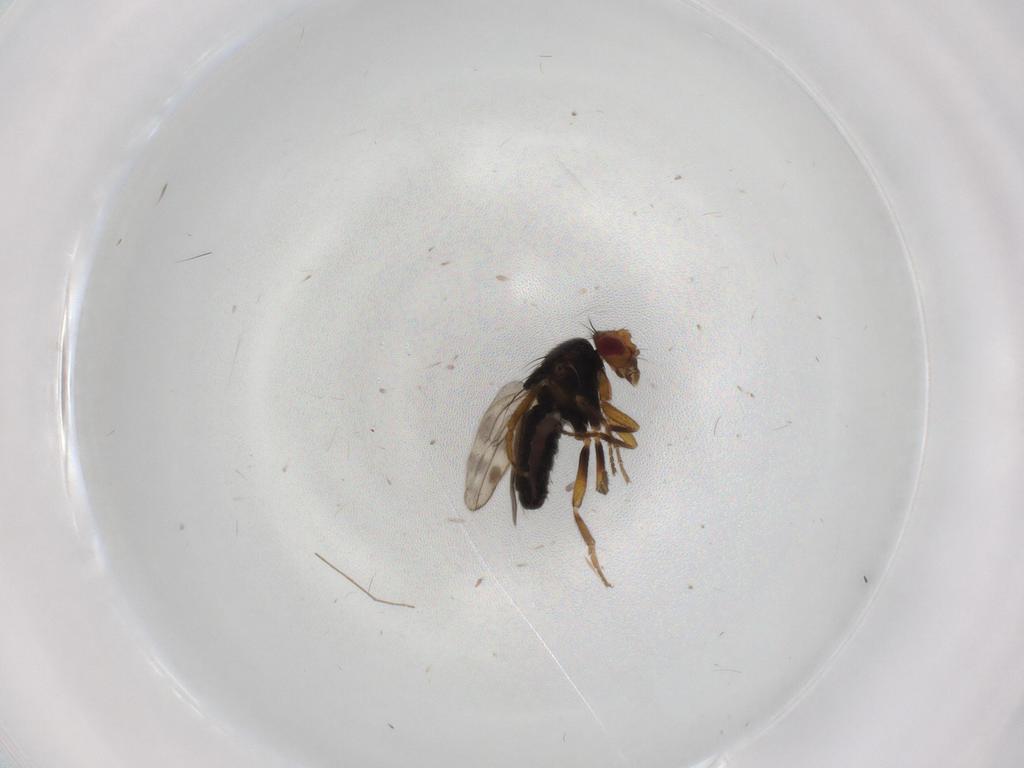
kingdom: Animalia
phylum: Arthropoda
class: Insecta
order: Diptera
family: Sphaeroceridae
